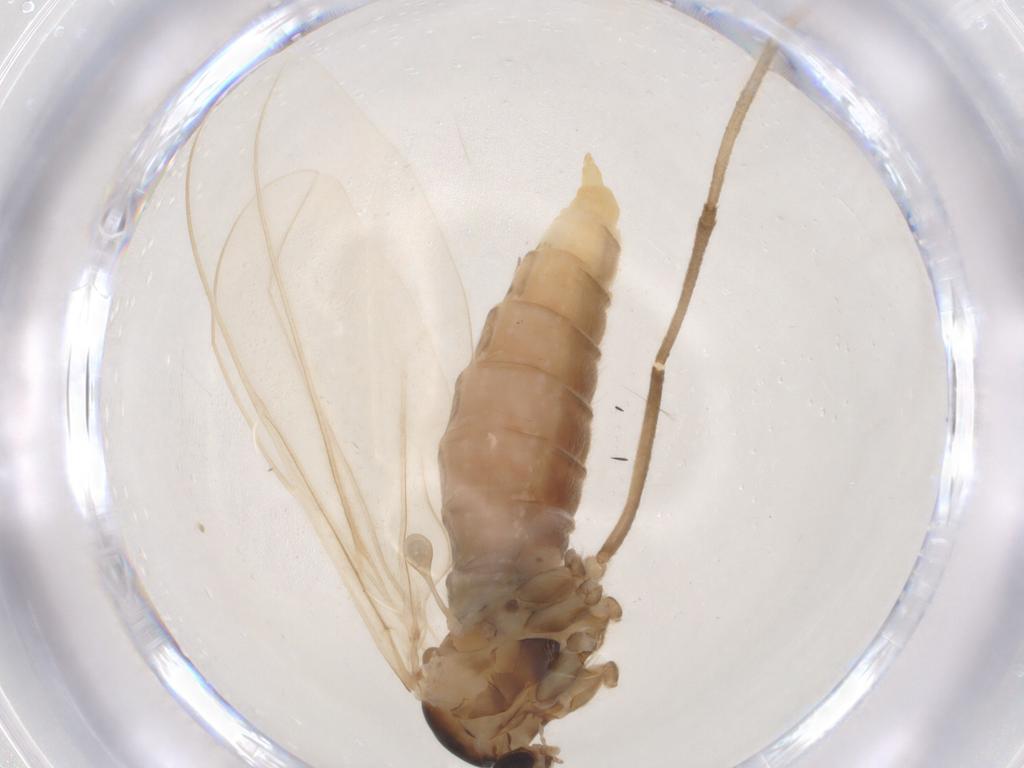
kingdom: Animalia
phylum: Arthropoda
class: Insecta
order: Diptera
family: Cecidomyiidae
